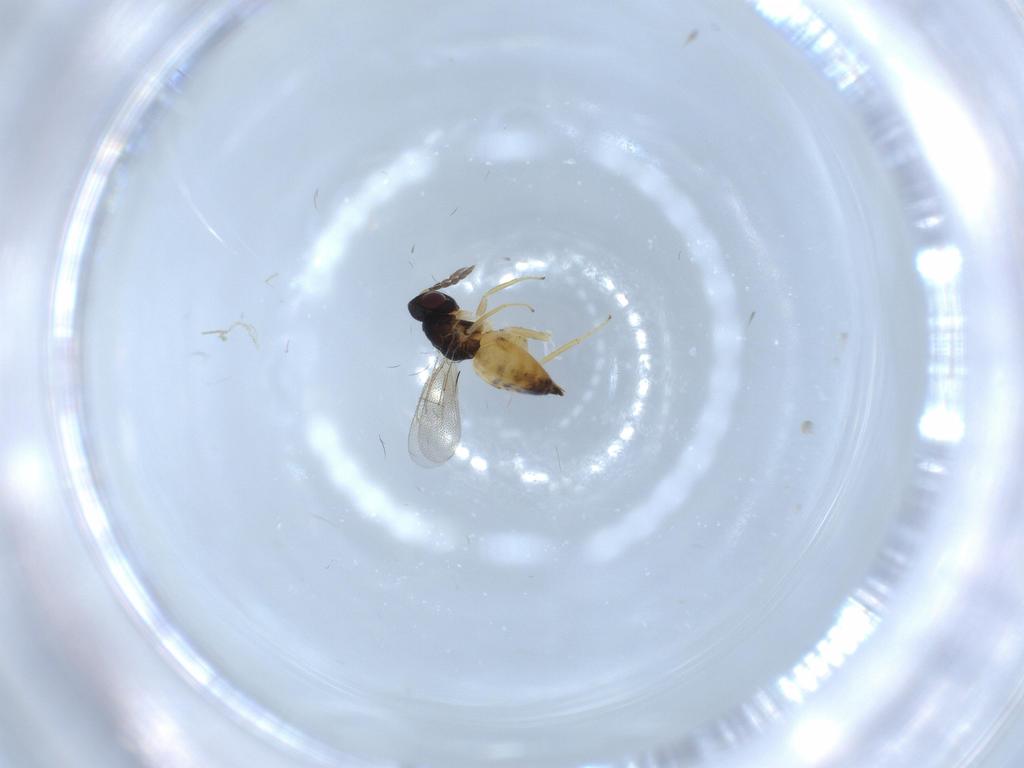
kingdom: Animalia
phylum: Arthropoda
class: Insecta
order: Hymenoptera
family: Eulophidae
